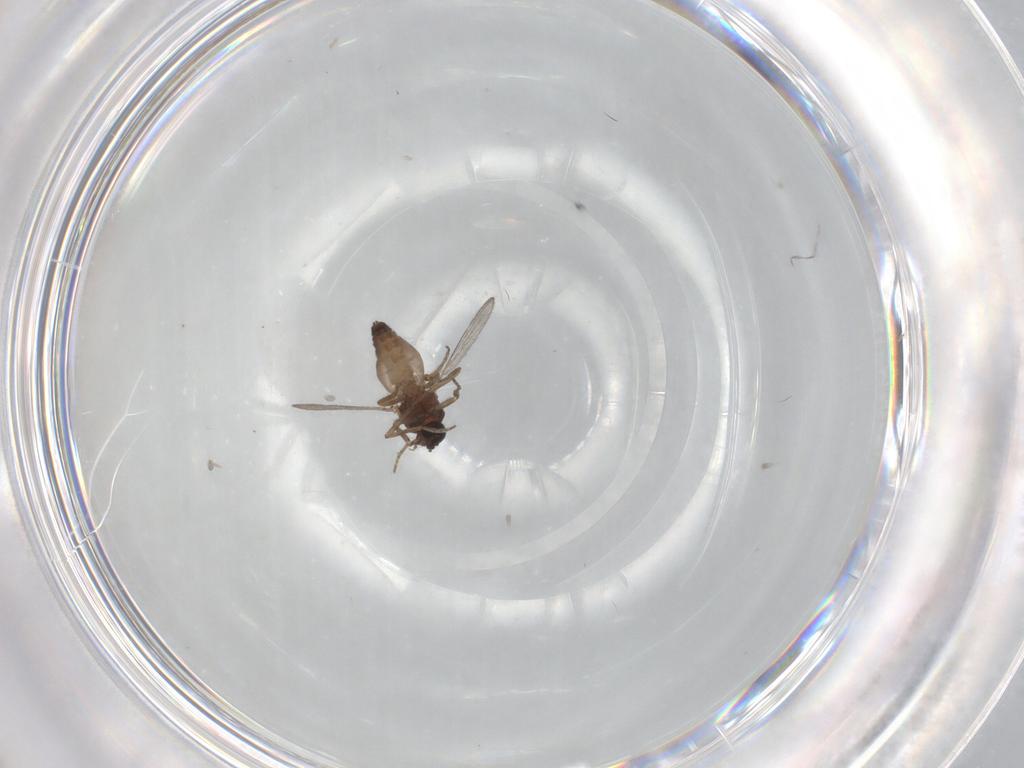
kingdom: Animalia
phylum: Arthropoda
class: Insecta
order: Diptera
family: Ceratopogonidae
